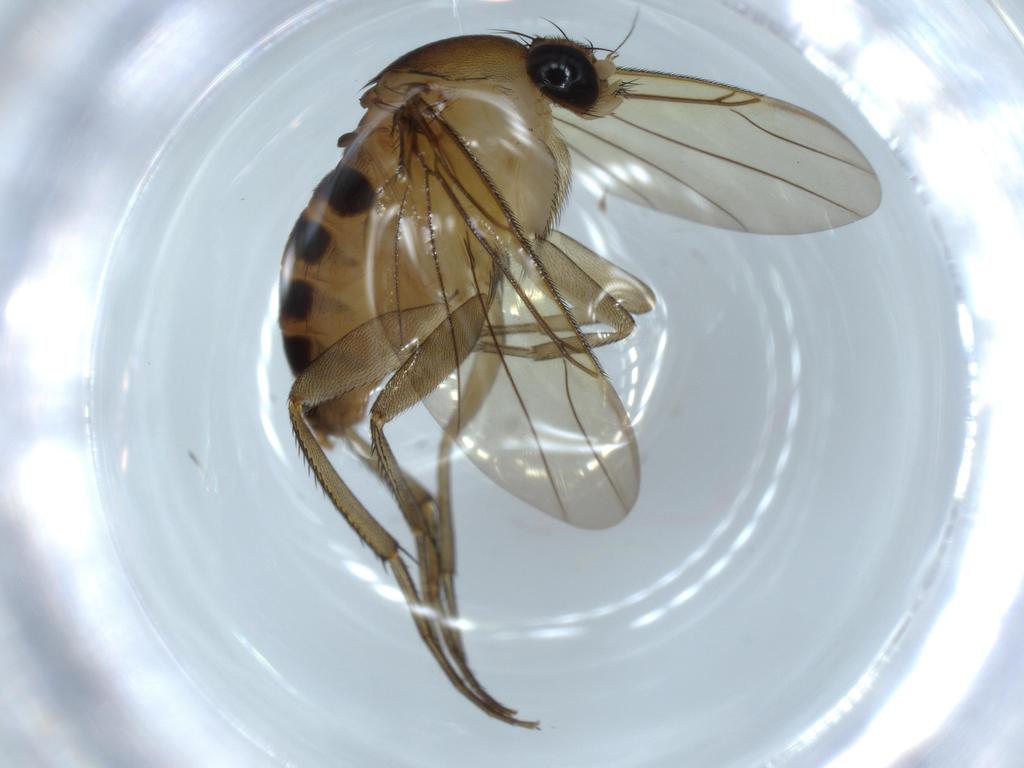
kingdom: Animalia
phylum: Arthropoda
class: Insecta
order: Diptera
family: Phoridae
